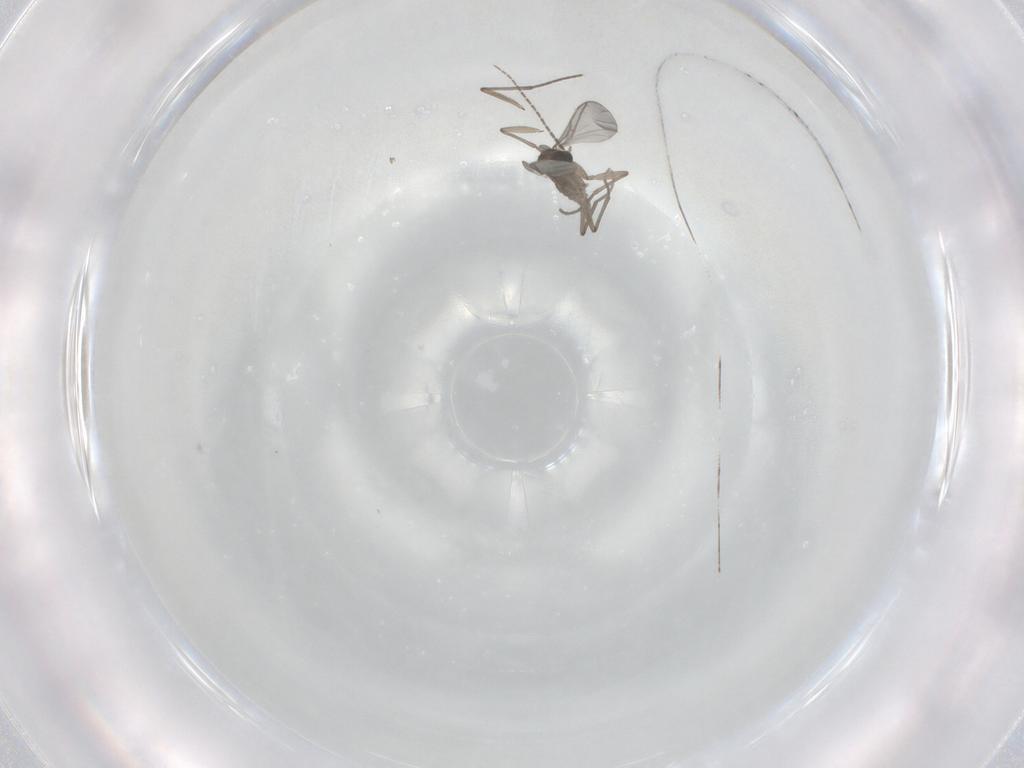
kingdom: Animalia
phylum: Arthropoda
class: Insecta
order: Diptera
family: Sciaridae
